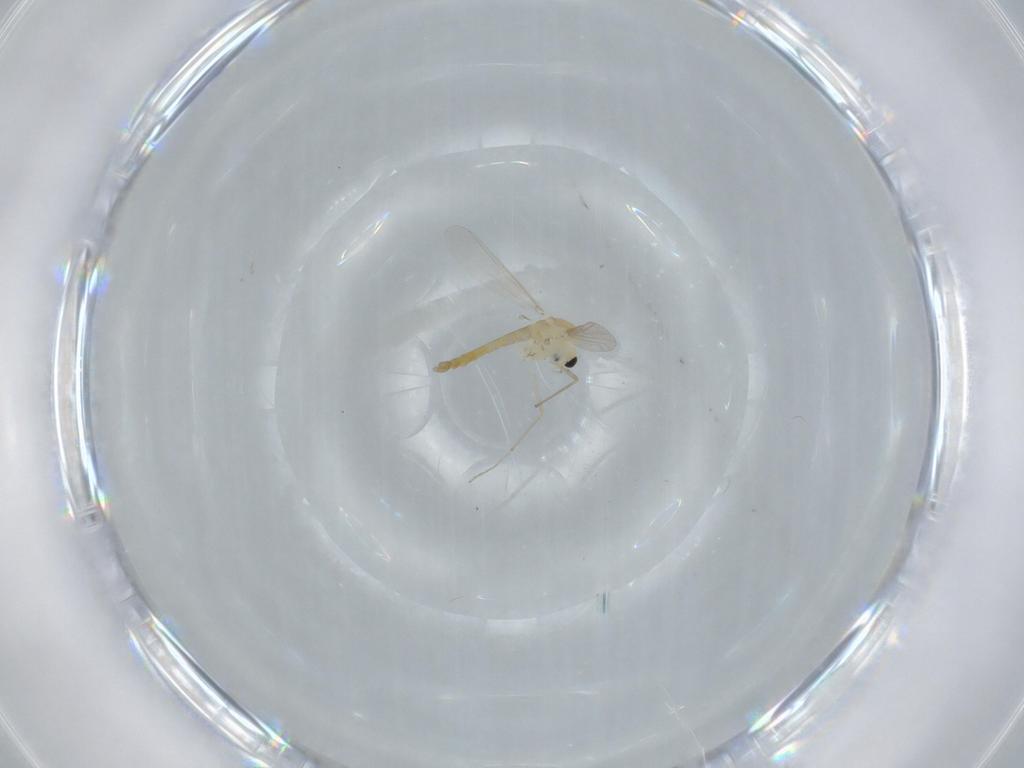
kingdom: Animalia
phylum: Arthropoda
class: Insecta
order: Diptera
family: Chironomidae
